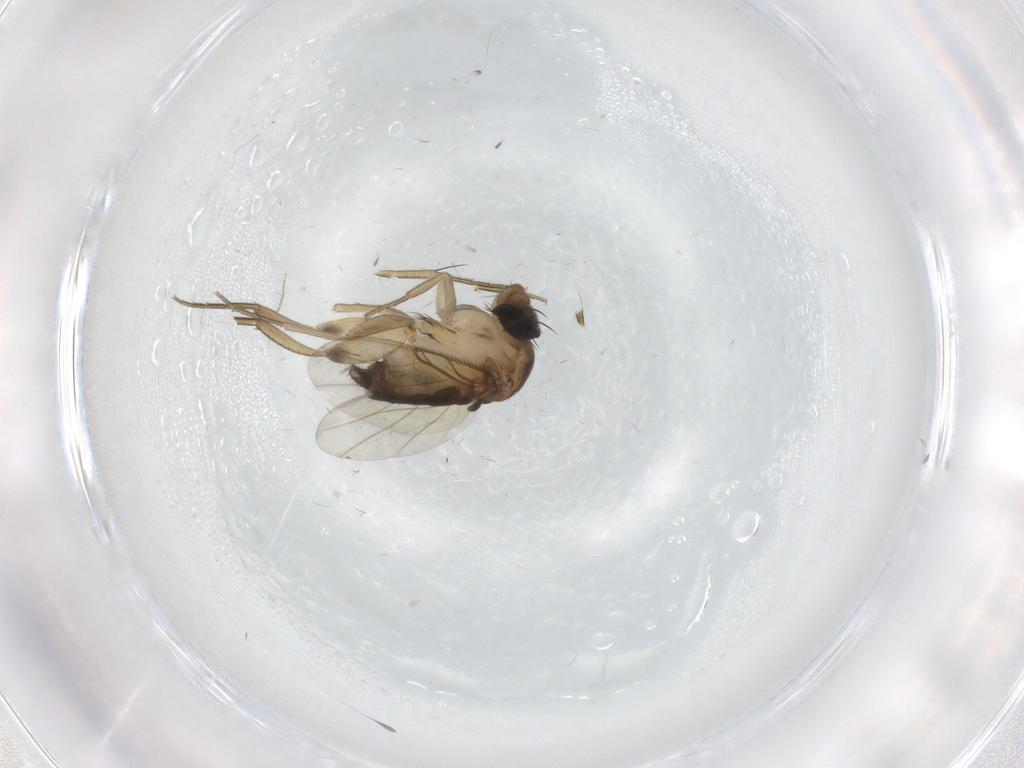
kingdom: Animalia
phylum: Arthropoda
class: Insecta
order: Diptera
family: Phoridae
